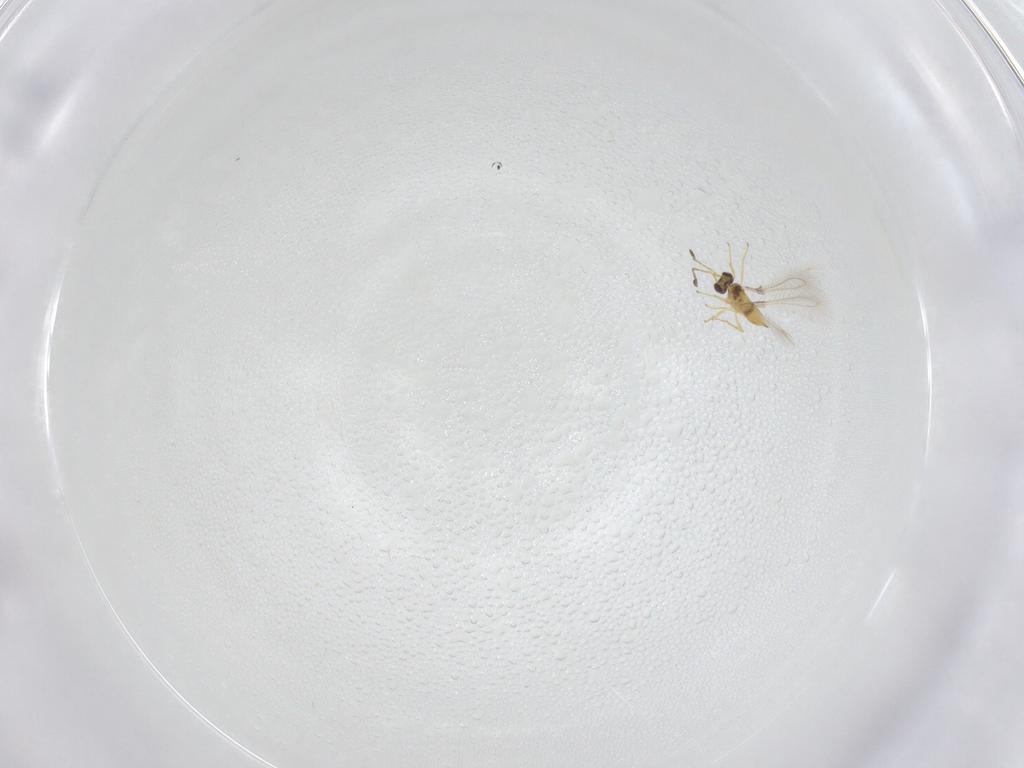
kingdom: Animalia
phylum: Arthropoda
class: Insecta
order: Hymenoptera
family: Mymaridae
